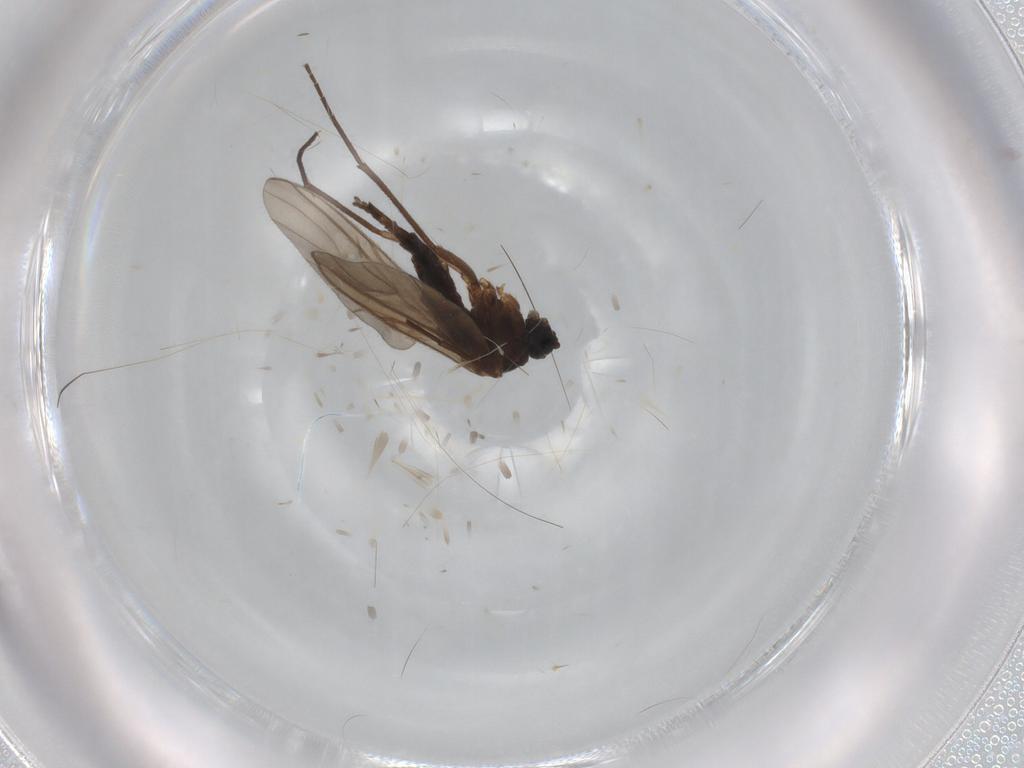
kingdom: Animalia
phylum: Arthropoda
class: Insecta
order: Diptera
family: Sciaridae
